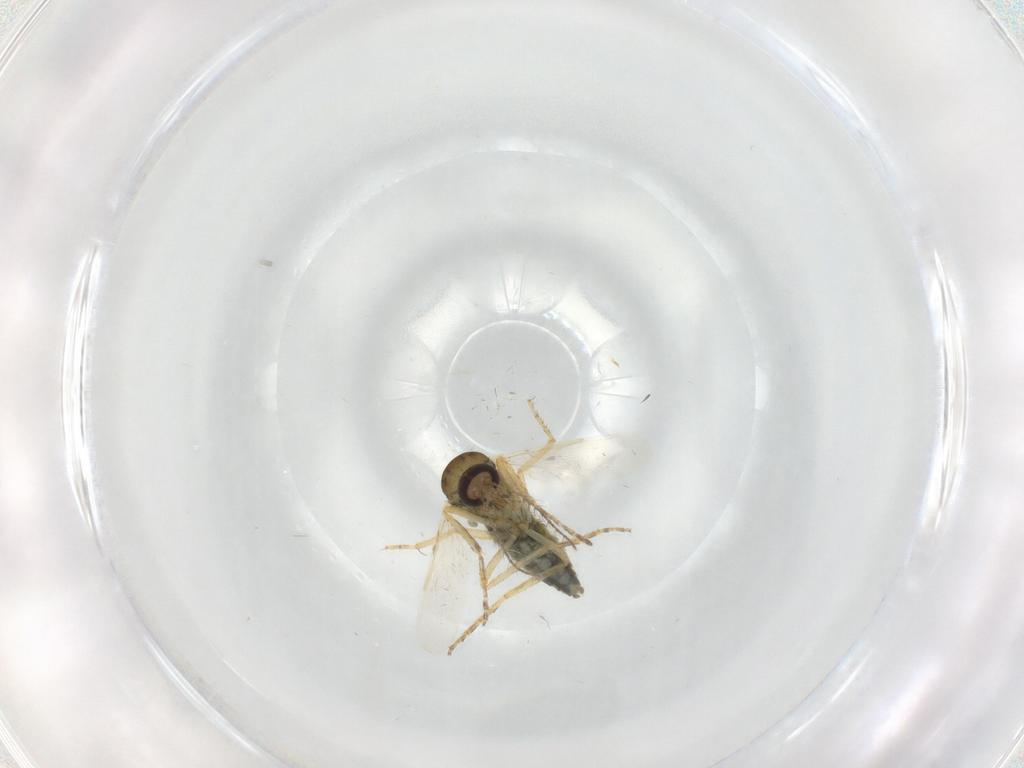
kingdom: Animalia
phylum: Arthropoda
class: Insecta
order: Diptera
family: Ceratopogonidae
